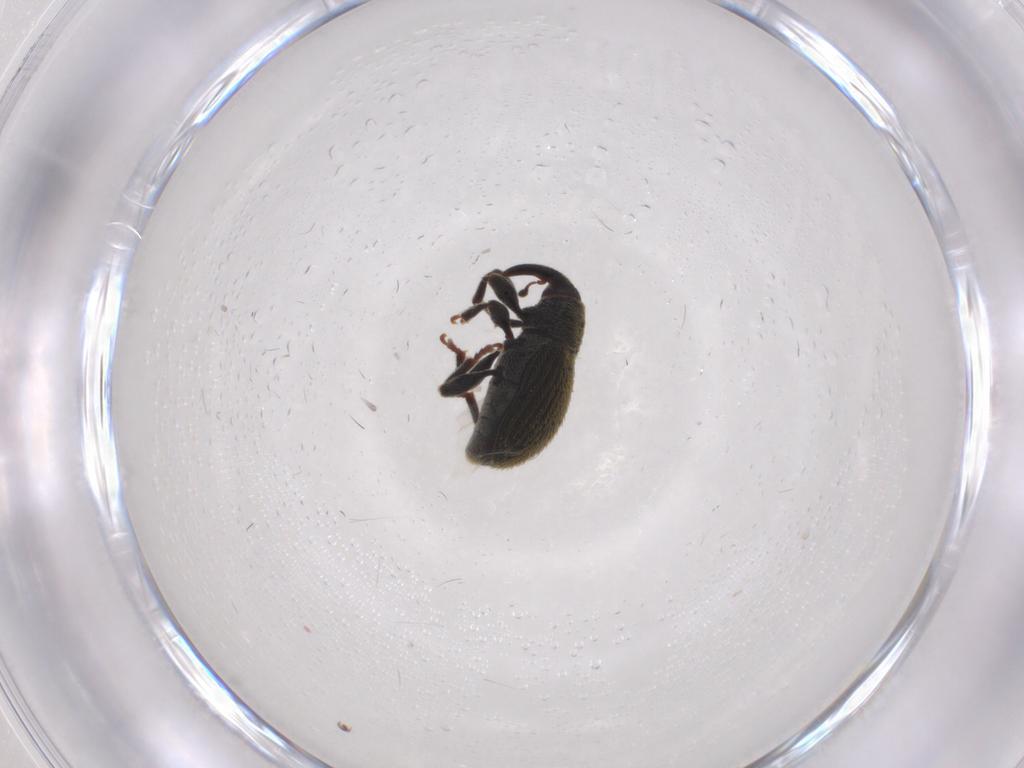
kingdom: Animalia
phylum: Arthropoda
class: Insecta
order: Coleoptera
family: Curculionidae
